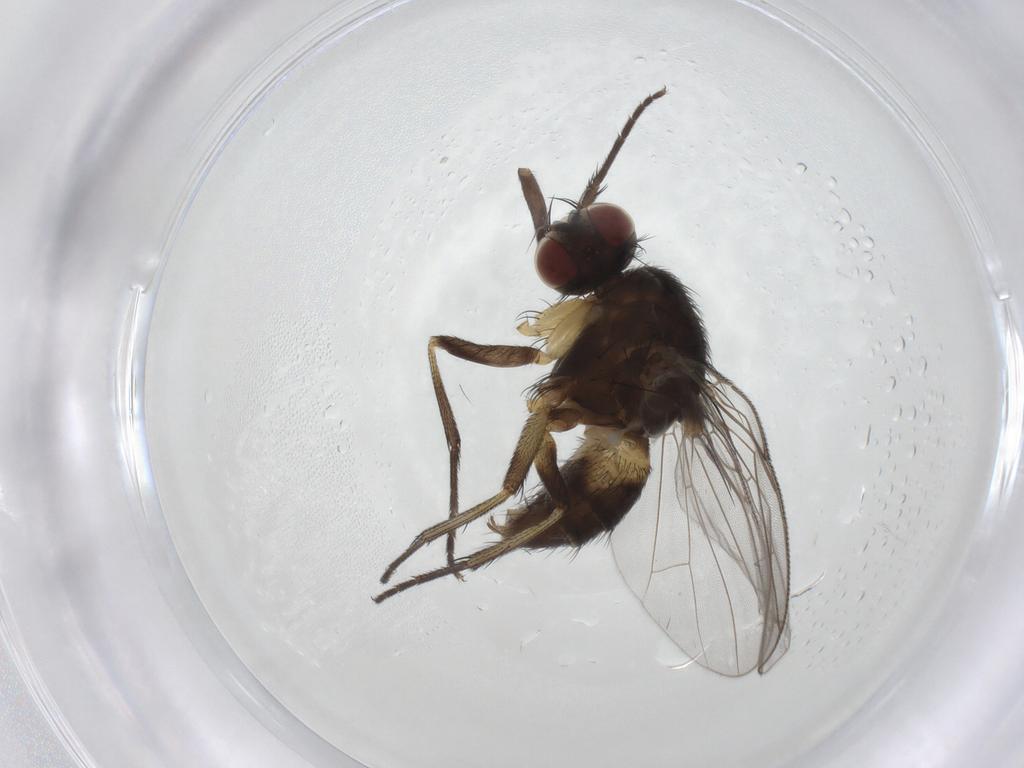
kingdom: Animalia
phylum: Arthropoda
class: Insecta
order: Diptera
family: Muscidae
